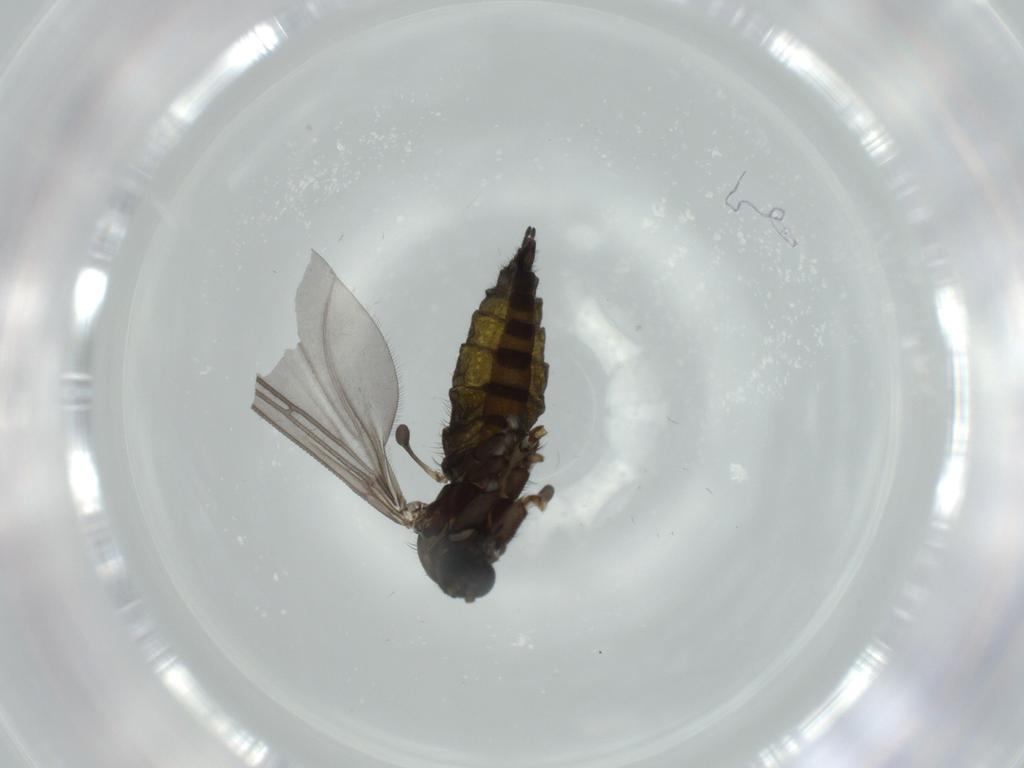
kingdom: Animalia
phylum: Arthropoda
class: Insecta
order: Diptera
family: Sciaridae
